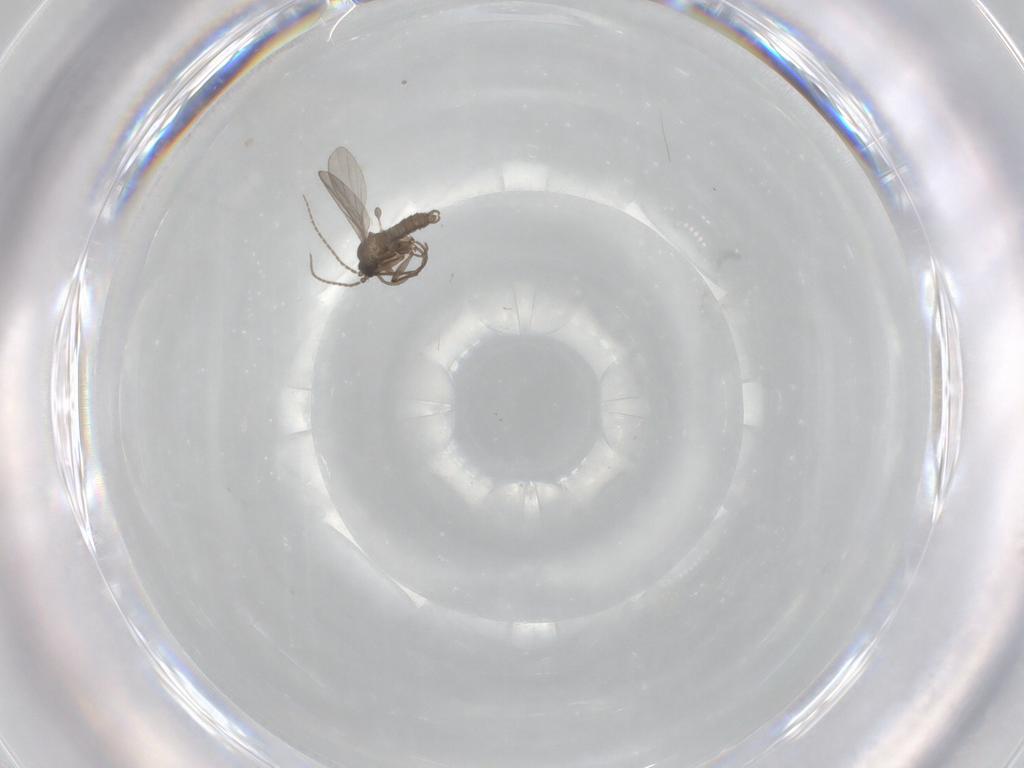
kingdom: Animalia
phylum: Arthropoda
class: Insecta
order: Diptera
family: Sciaridae
